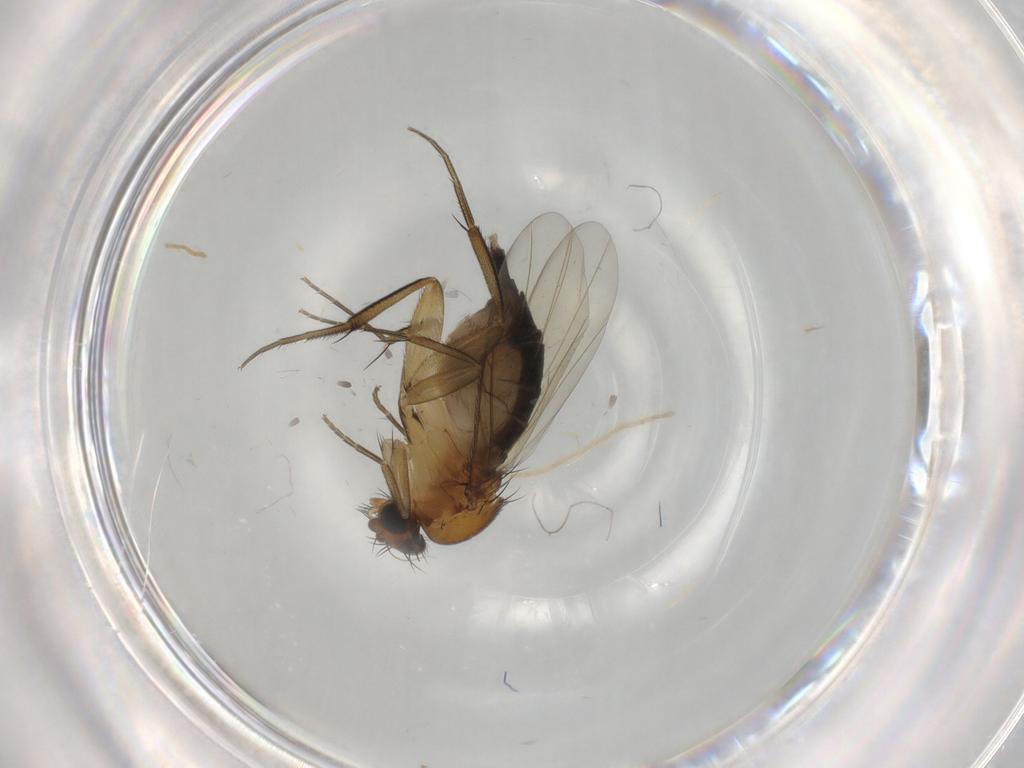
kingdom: Animalia
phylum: Arthropoda
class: Insecta
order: Diptera
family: Phoridae
